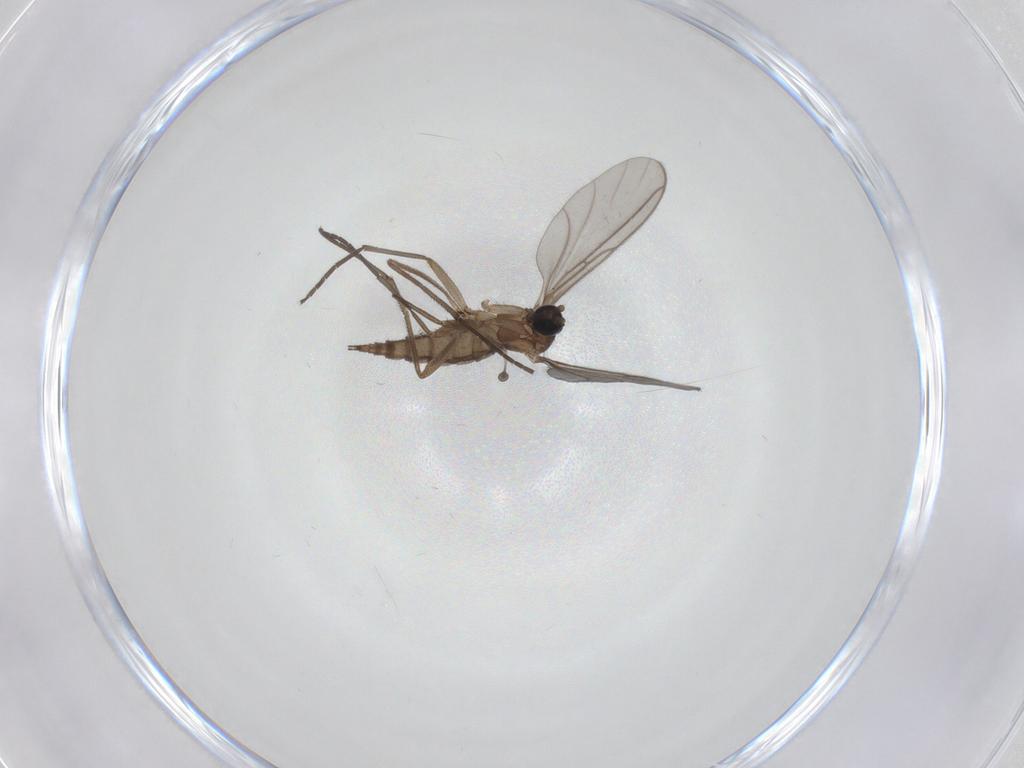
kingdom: Animalia
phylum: Arthropoda
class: Insecta
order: Diptera
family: Sciaridae
